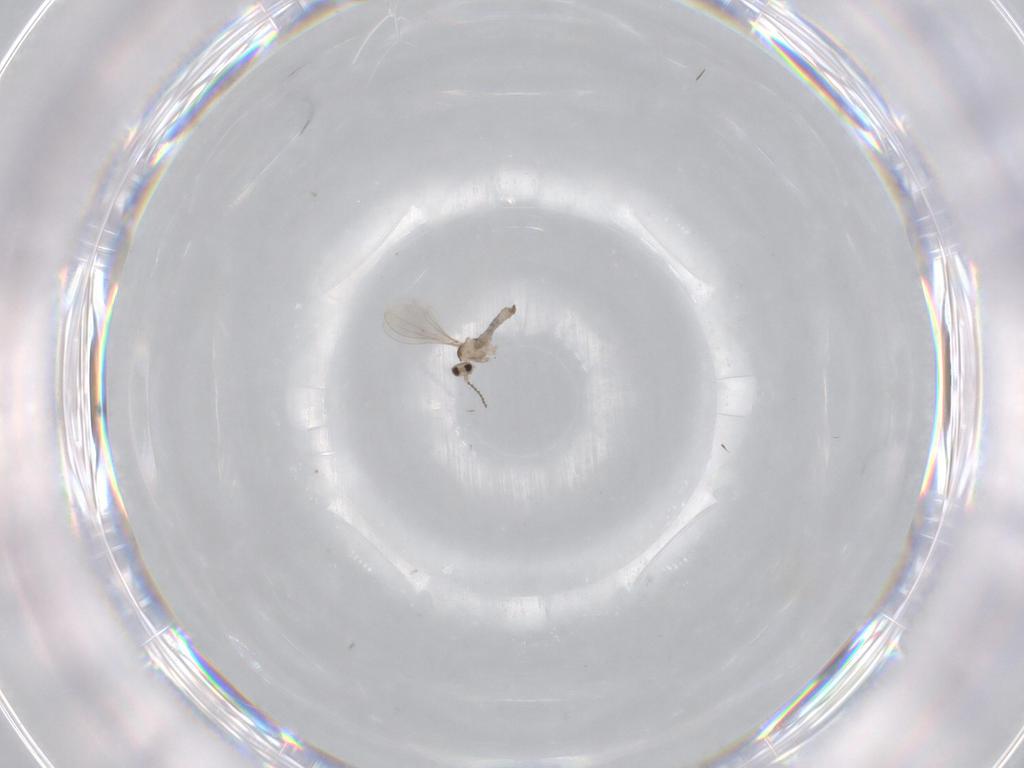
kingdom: Animalia
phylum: Arthropoda
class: Insecta
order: Diptera
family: Cecidomyiidae
